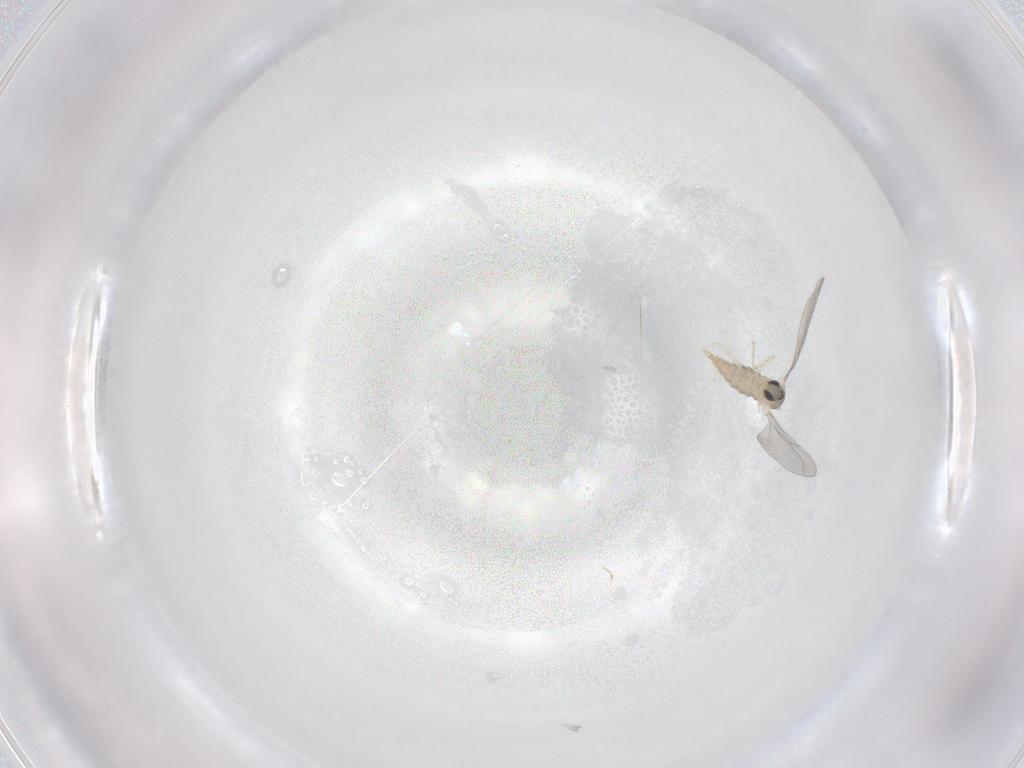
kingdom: Animalia
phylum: Arthropoda
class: Insecta
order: Diptera
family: Cecidomyiidae
